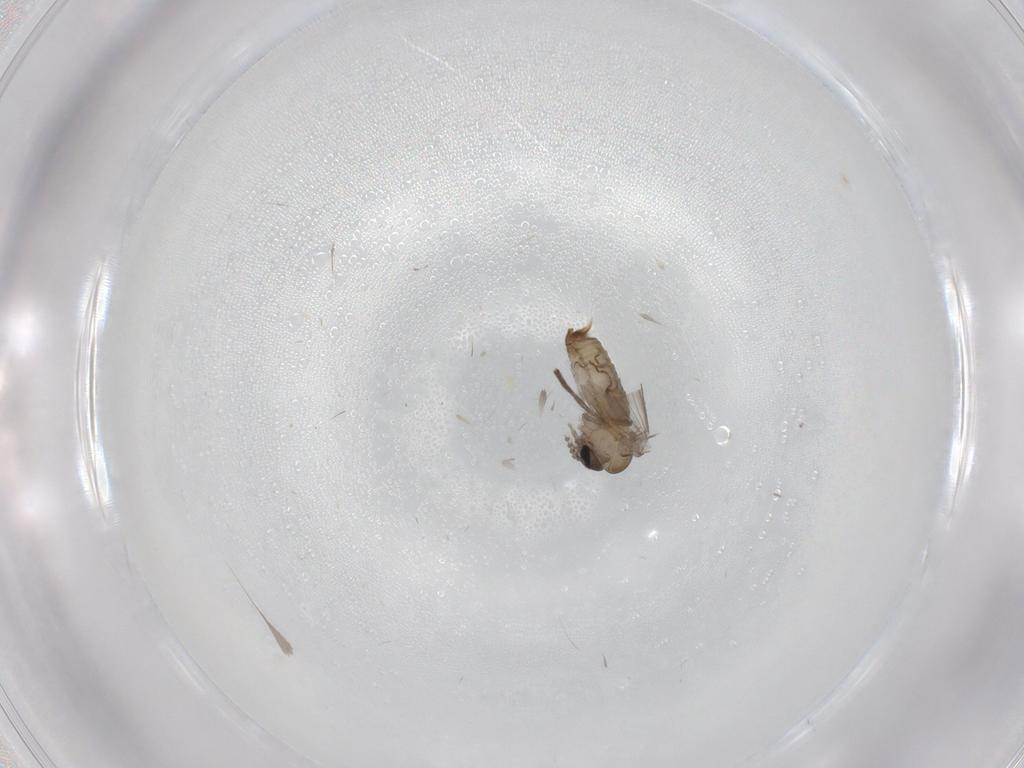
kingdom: Animalia
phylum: Arthropoda
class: Insecta
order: Diptera
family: Psychodidae
